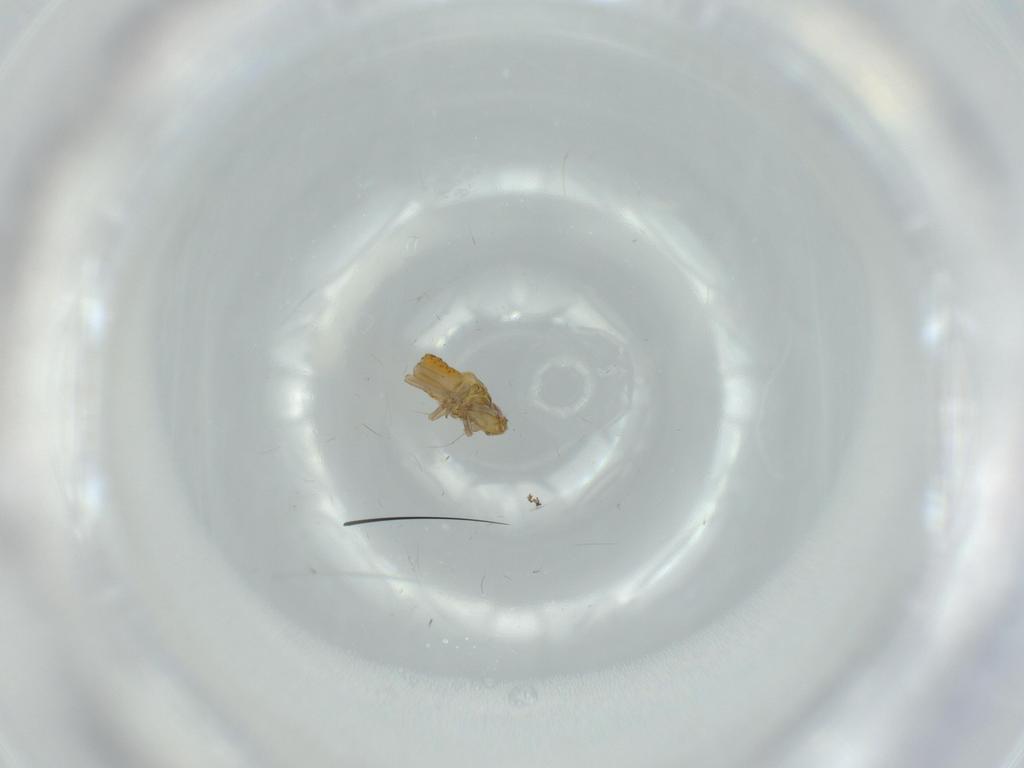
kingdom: Animalia
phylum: Arthropoda
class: Insecta
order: Hemiptera
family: Delphacidae
